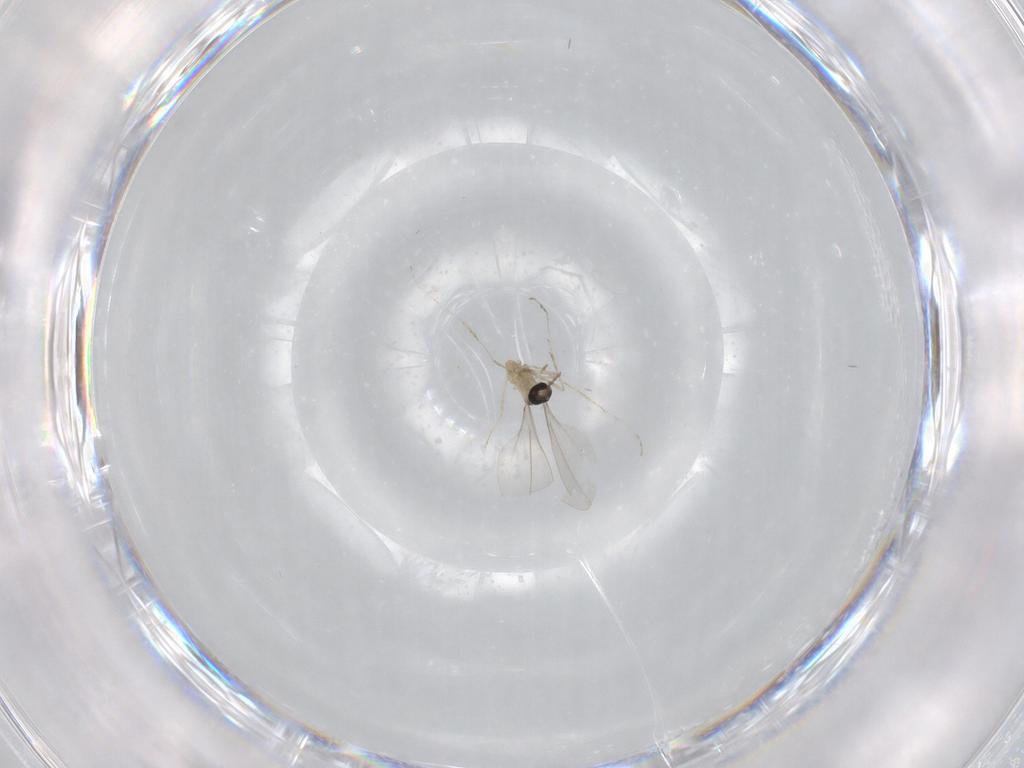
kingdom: Animalia
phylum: Arthropoda
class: Insecta
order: Diptera
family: Cecidomyiidae
